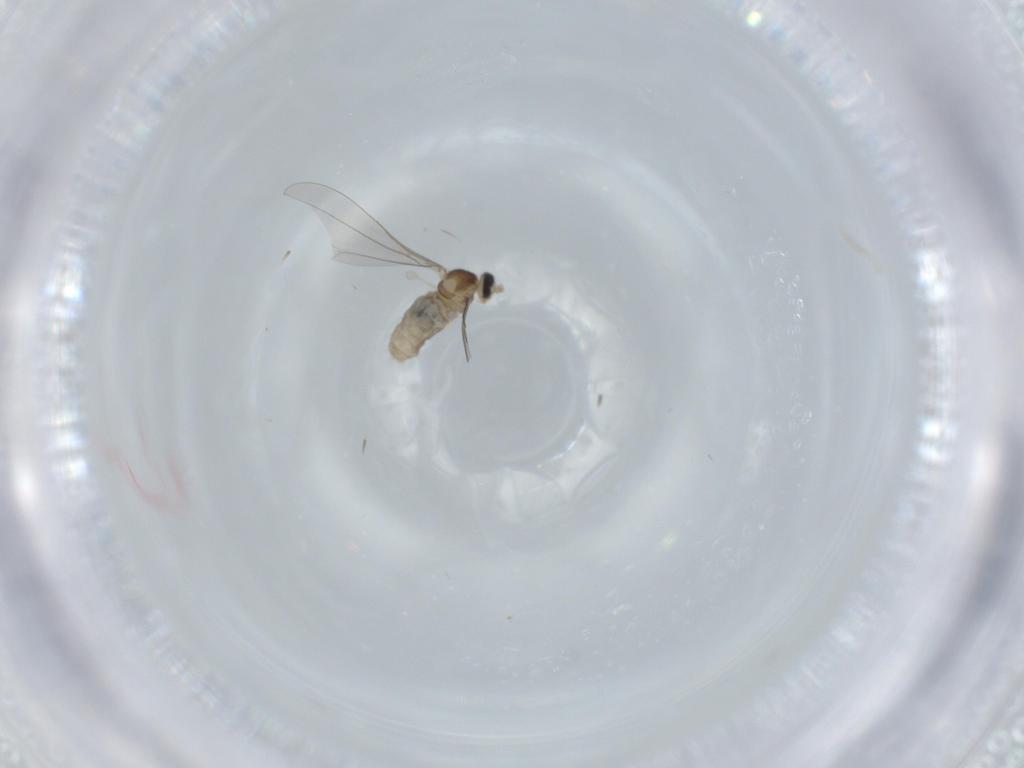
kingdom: Animalia
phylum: Arthropoda
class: Insecta
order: Diptera
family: Cecidomyiidae
